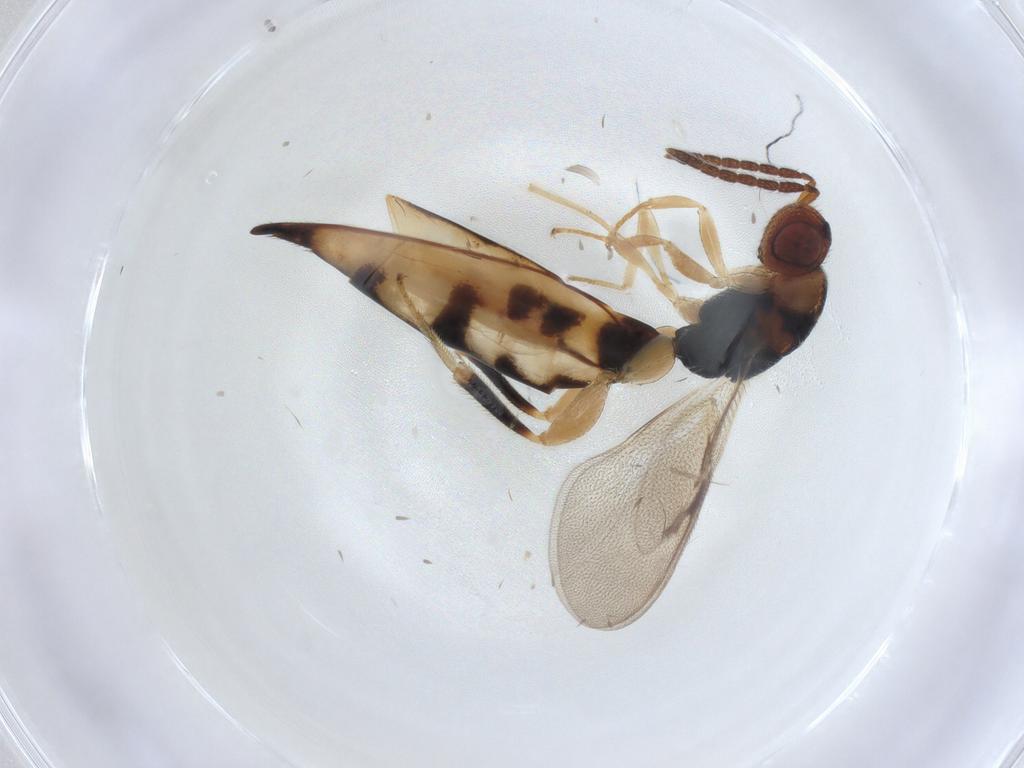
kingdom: Animalia
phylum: Arthropoda
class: Insecta
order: Hymenoptera
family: Eurytomidae
